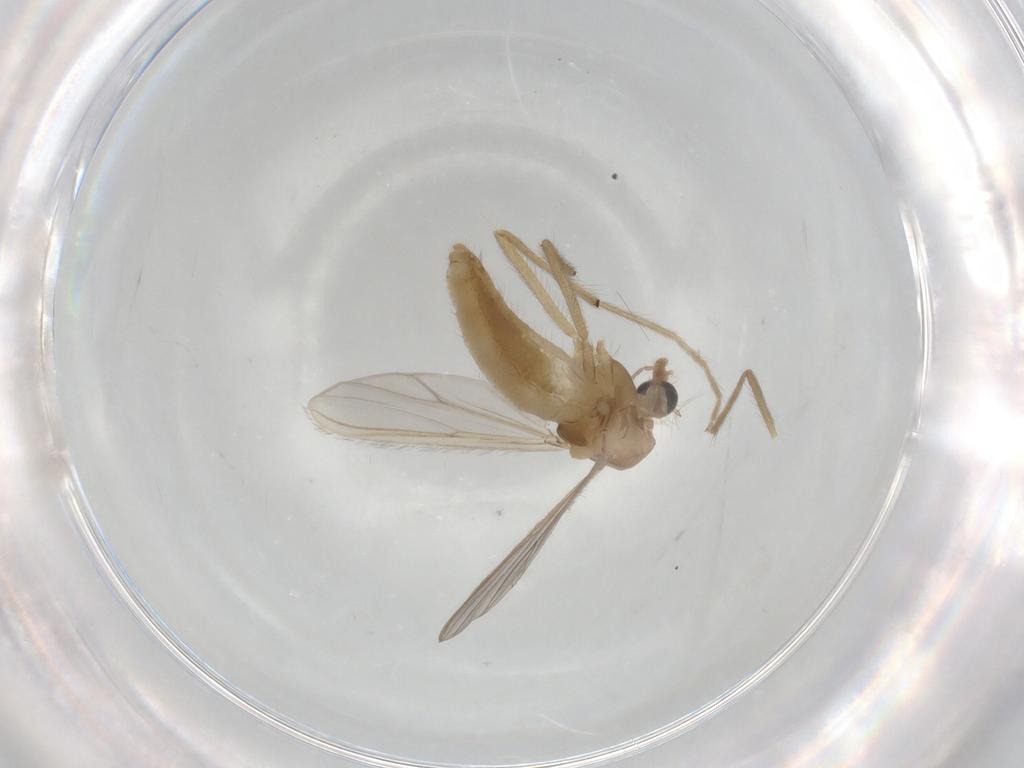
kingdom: Animalia
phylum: Arthropoda
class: Insecta
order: Diptera
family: Chironomidae
